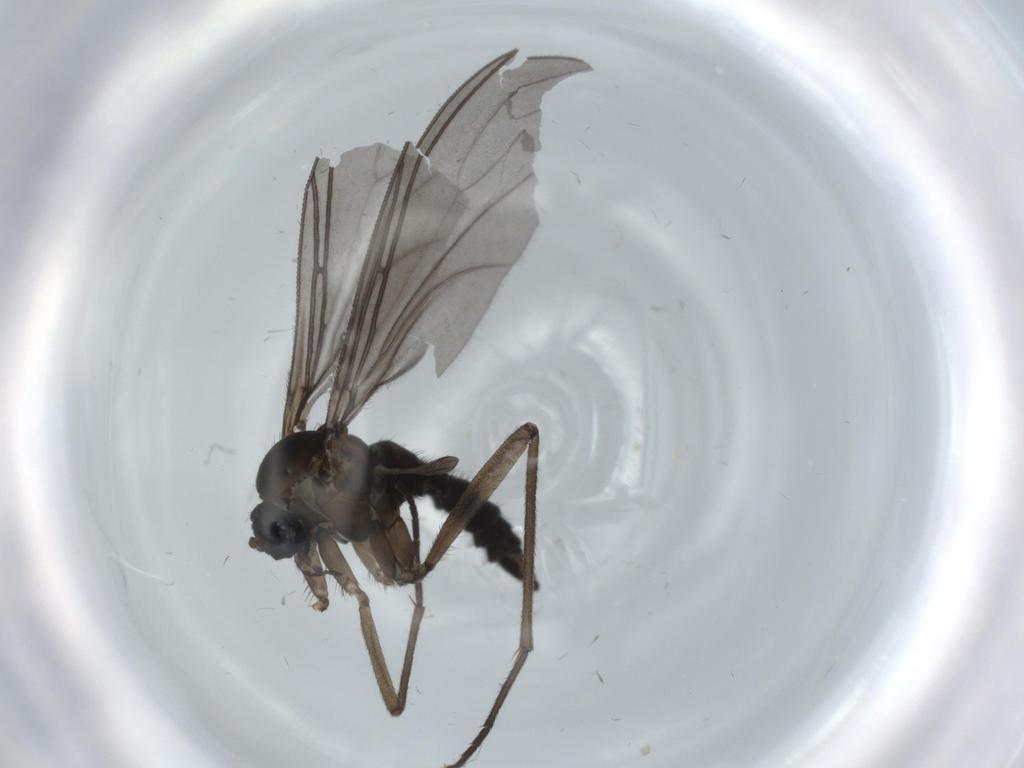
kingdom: Animalia
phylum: Arthropoda
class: Insecta
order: Diptera
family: Sciaridae
